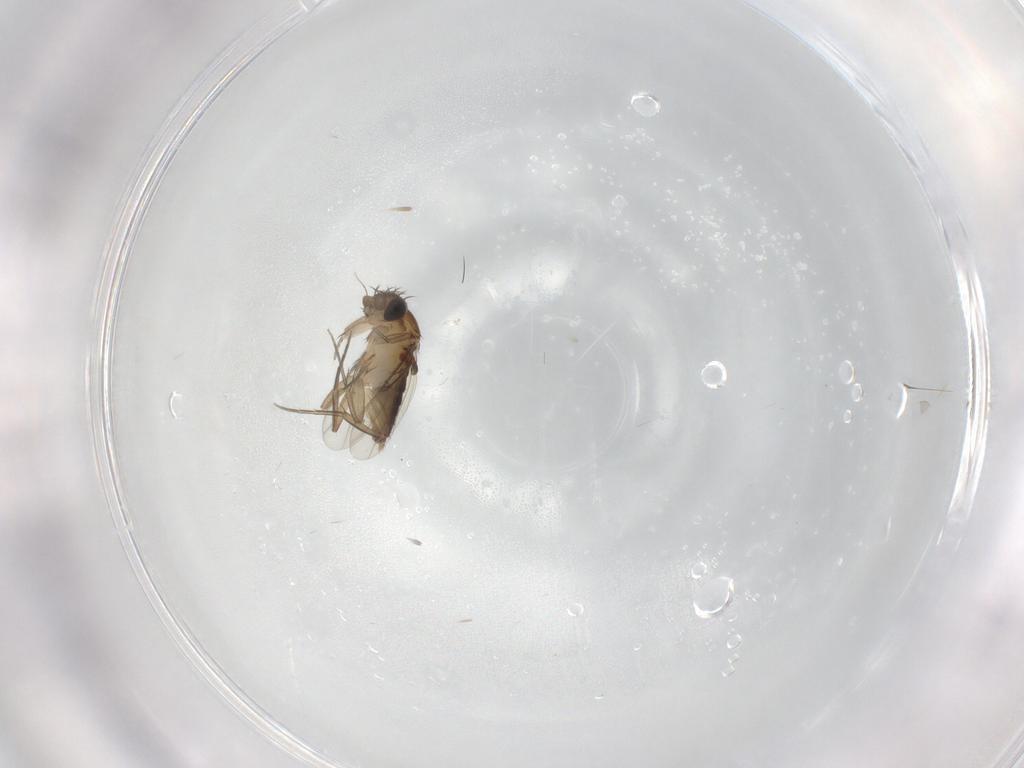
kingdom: Animalia
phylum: Arthropoda
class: Insecta
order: Diptera
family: Phoridae
